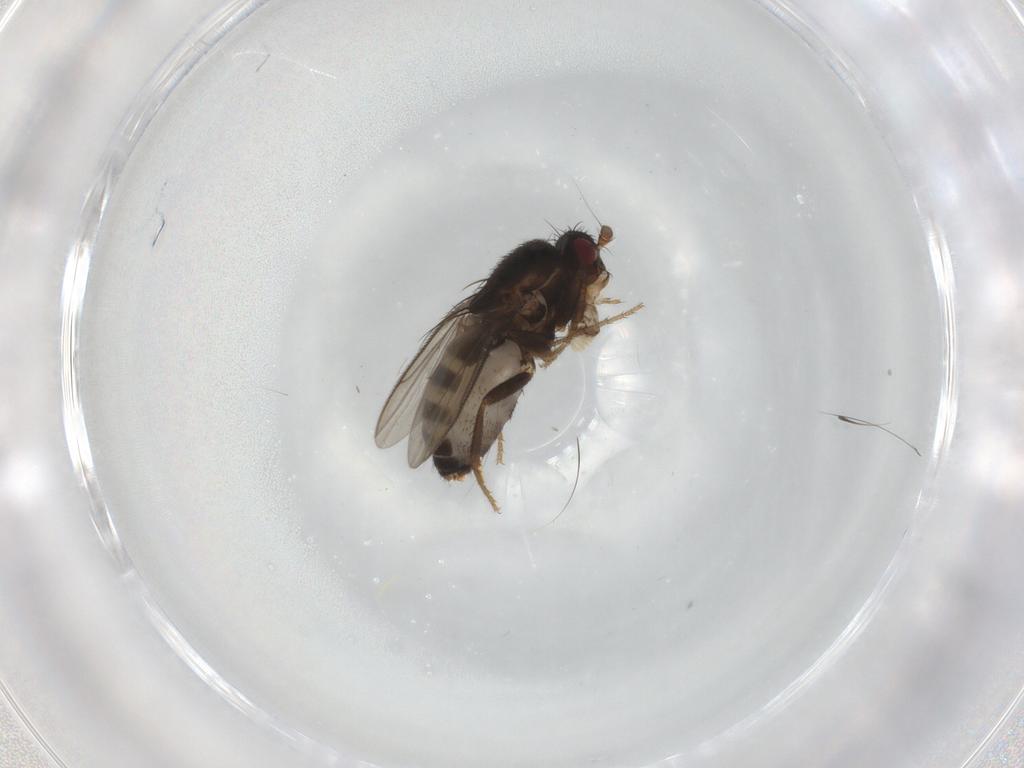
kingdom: Animalia
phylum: Arthropoda
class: Insecta
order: Diptera
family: Sphaeroceridae
